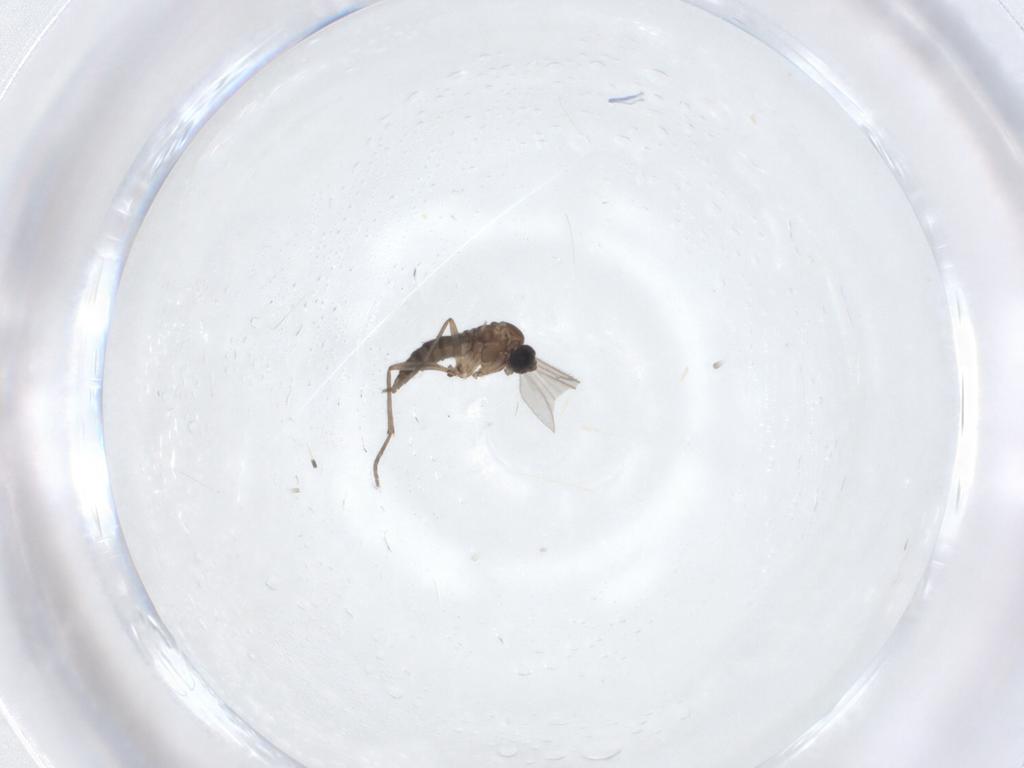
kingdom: Animalia
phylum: Arthropoda
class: Insecta
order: Diptera
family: Sciaridae
